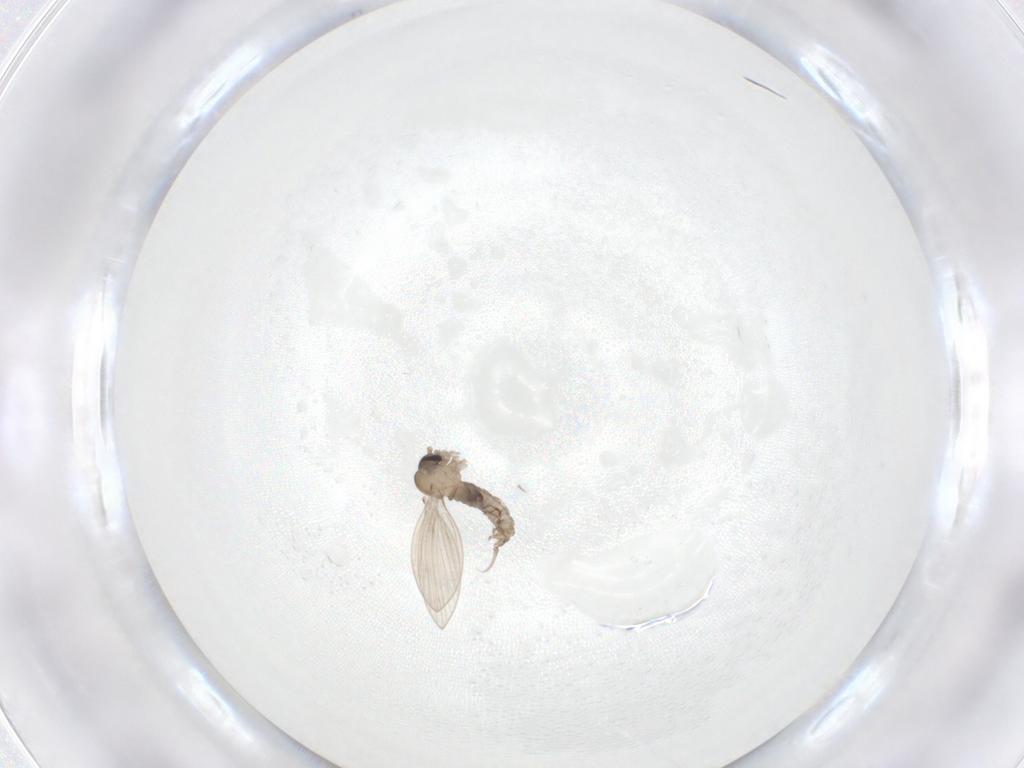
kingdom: Animalia
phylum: Arthropoda
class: Insecta
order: Diptera
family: Psychodidae
